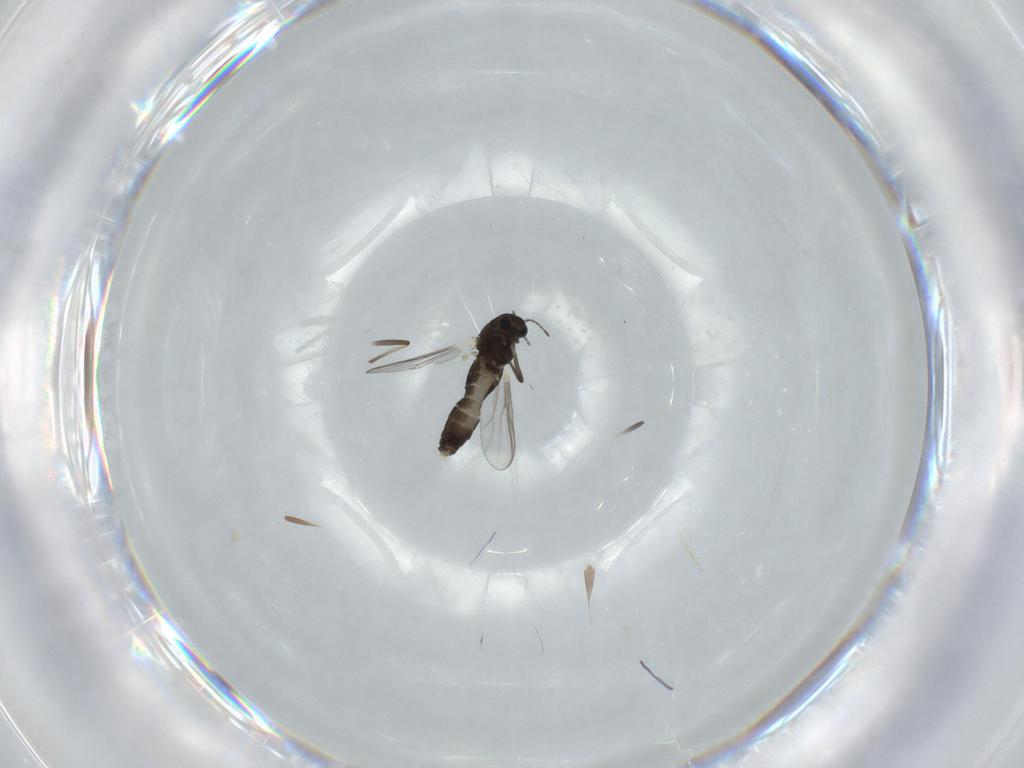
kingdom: Animalia
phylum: Arthropoda
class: Insecta
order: Diptera
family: Chironomidae
